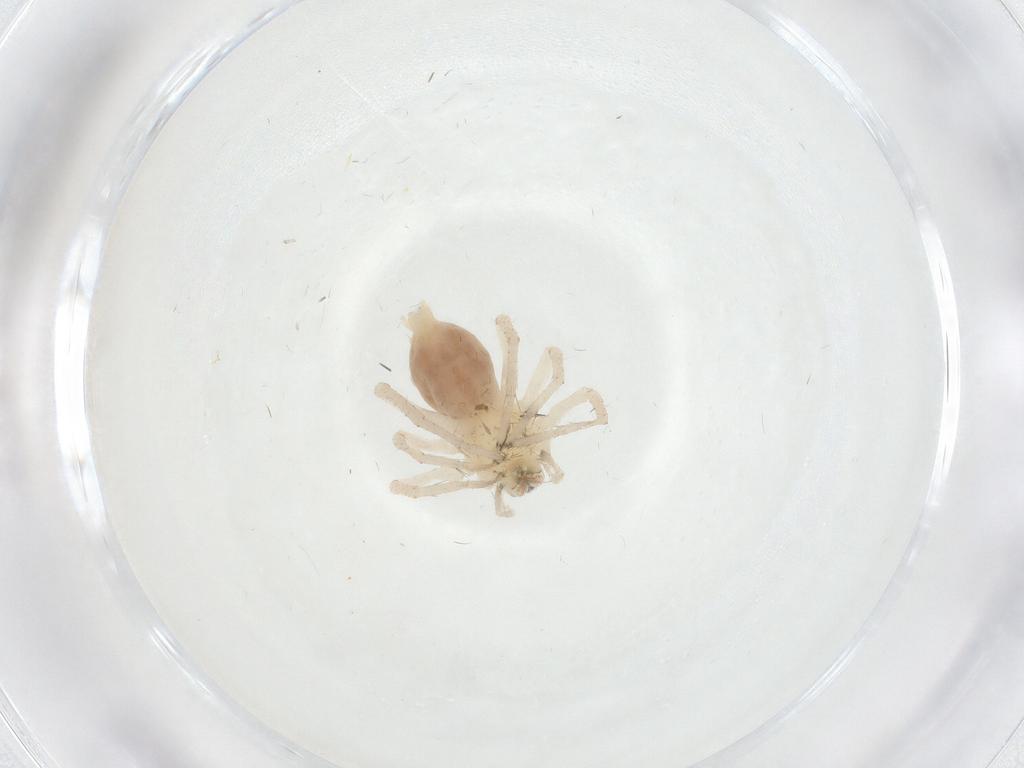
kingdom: Animalia
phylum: Arthropoda
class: Arachnida
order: Araneae
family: Anyphaenidae
